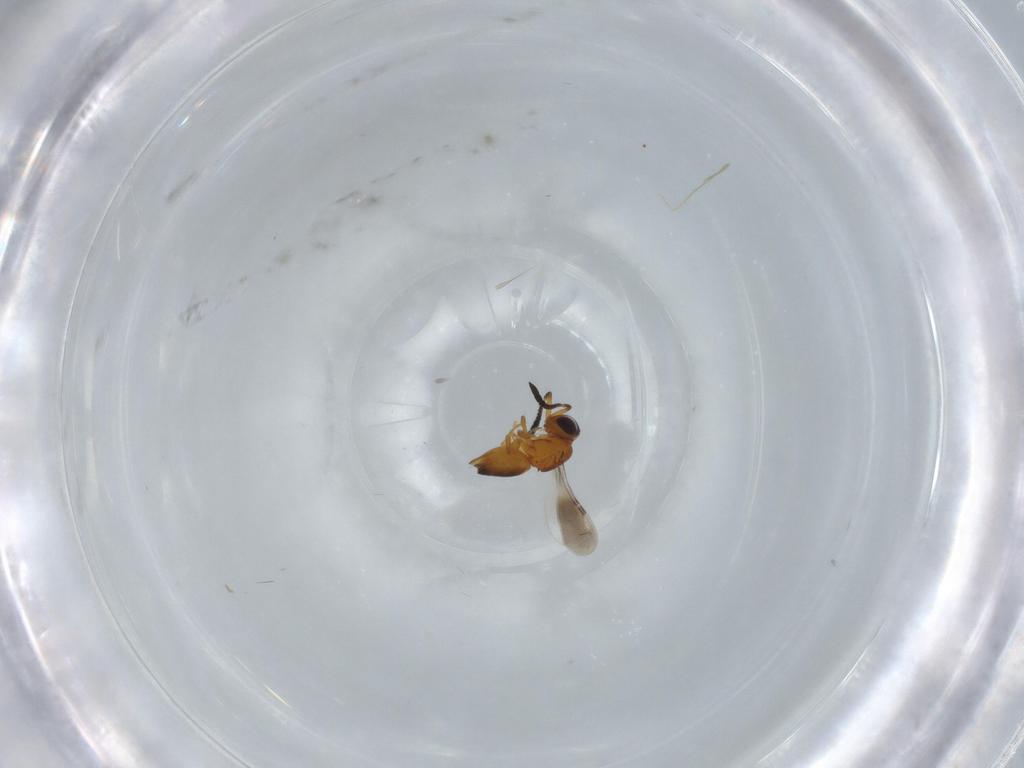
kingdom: Animalia
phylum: Arthropoda
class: Insecta
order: Hymenoptera
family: Ceraphronidae
